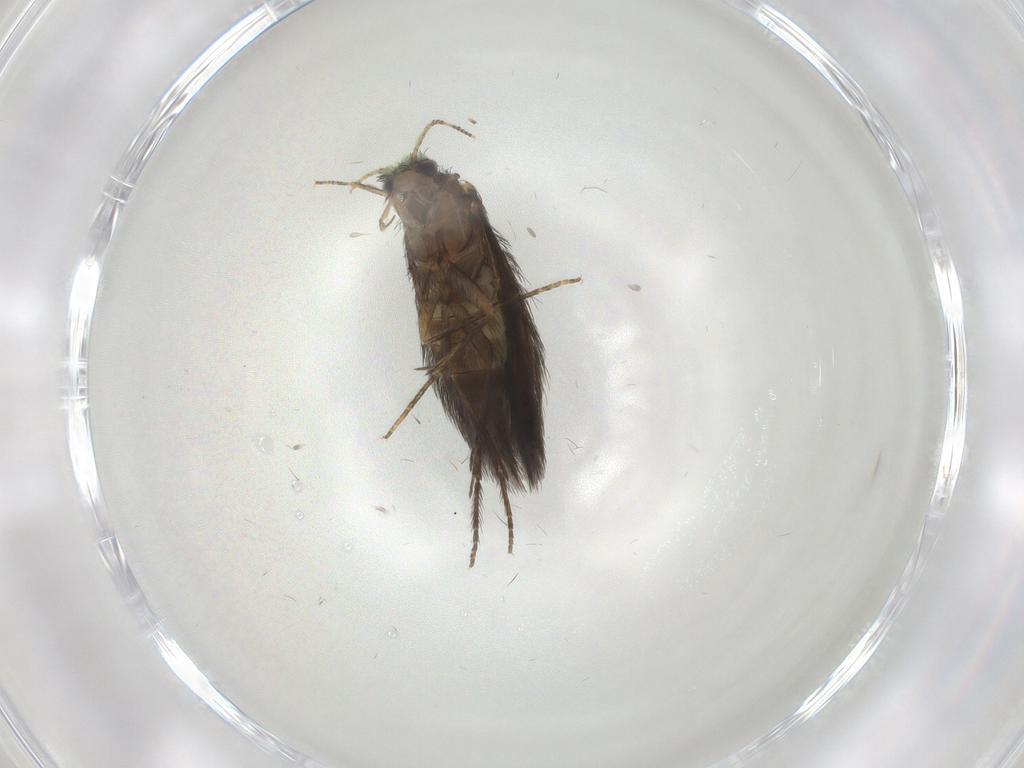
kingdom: Animalia
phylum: Arthropoda
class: Insecta
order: Trichoptera
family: Hydroptilidae
